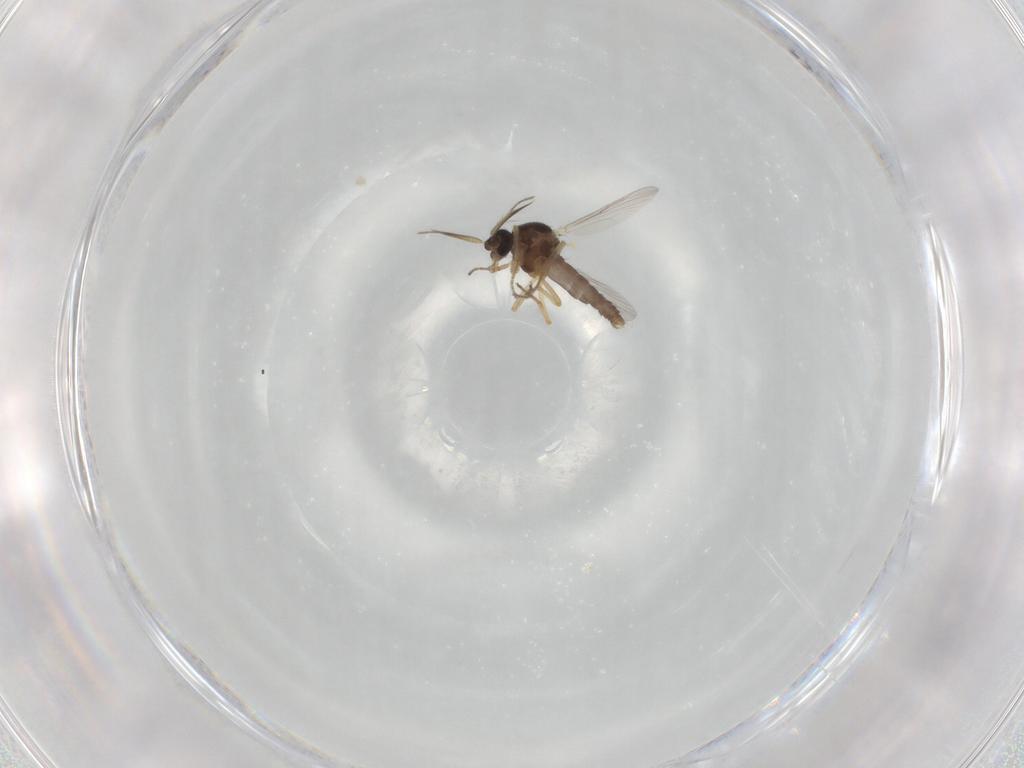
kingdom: Animalia
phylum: Arthropoda
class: Insecta
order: Diptera
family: Ceratopogonidae
